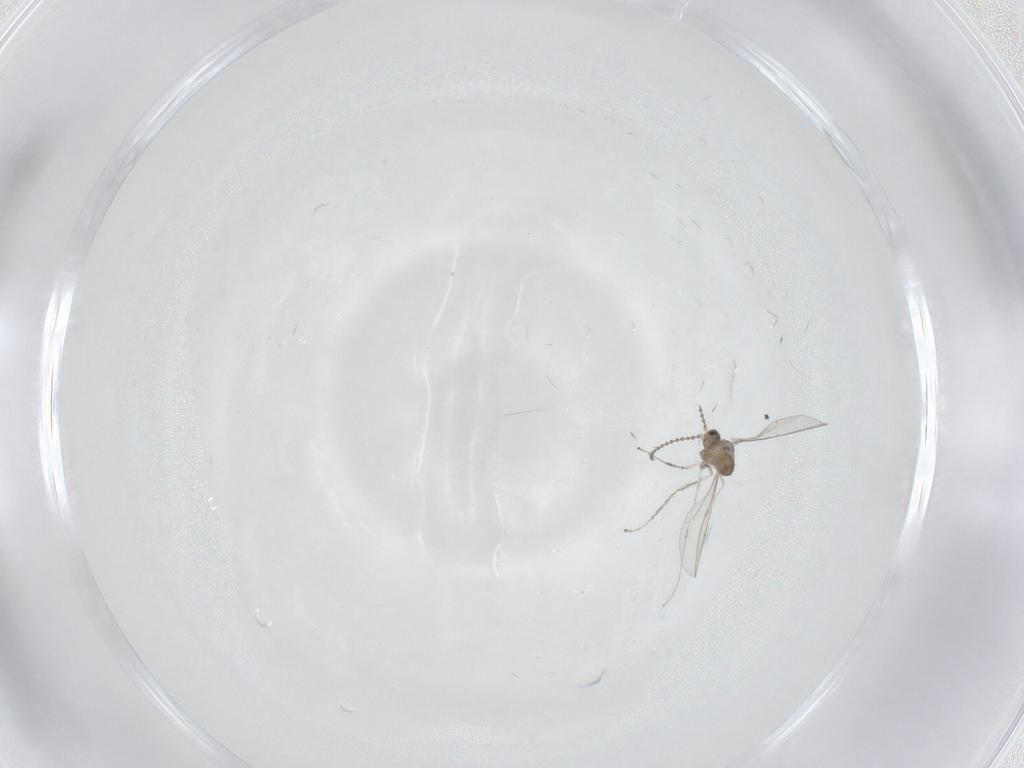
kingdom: Animalia
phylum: Arthropoda
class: Insecta
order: Diptera
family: Cecidomyiidae
